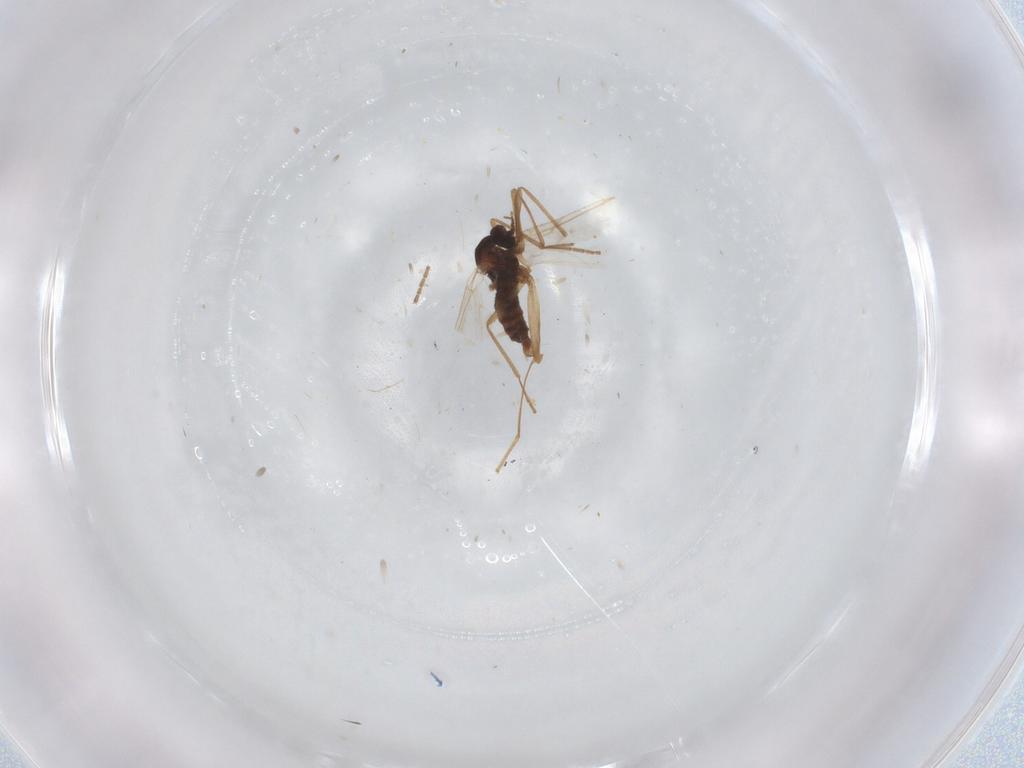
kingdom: Animalia
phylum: Arthropoda
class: Insecta
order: Diptera
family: Cecidomyiidae
